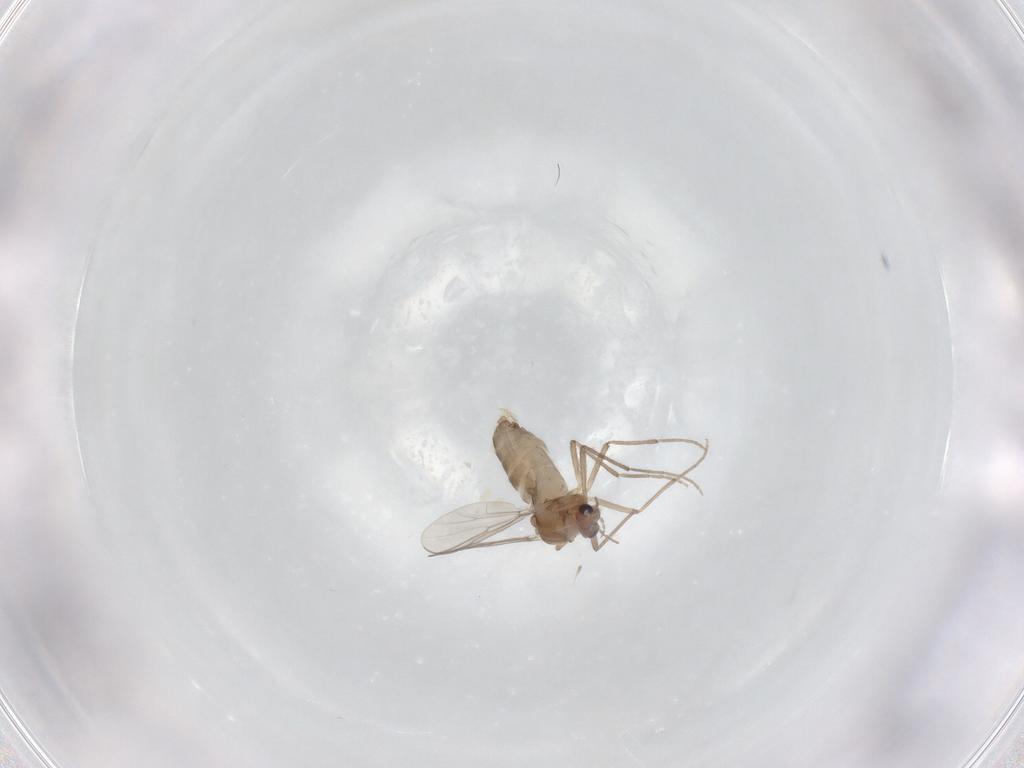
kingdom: Animalia
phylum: Arthropoda
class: Insecta
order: Diptera
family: Chironomidae
